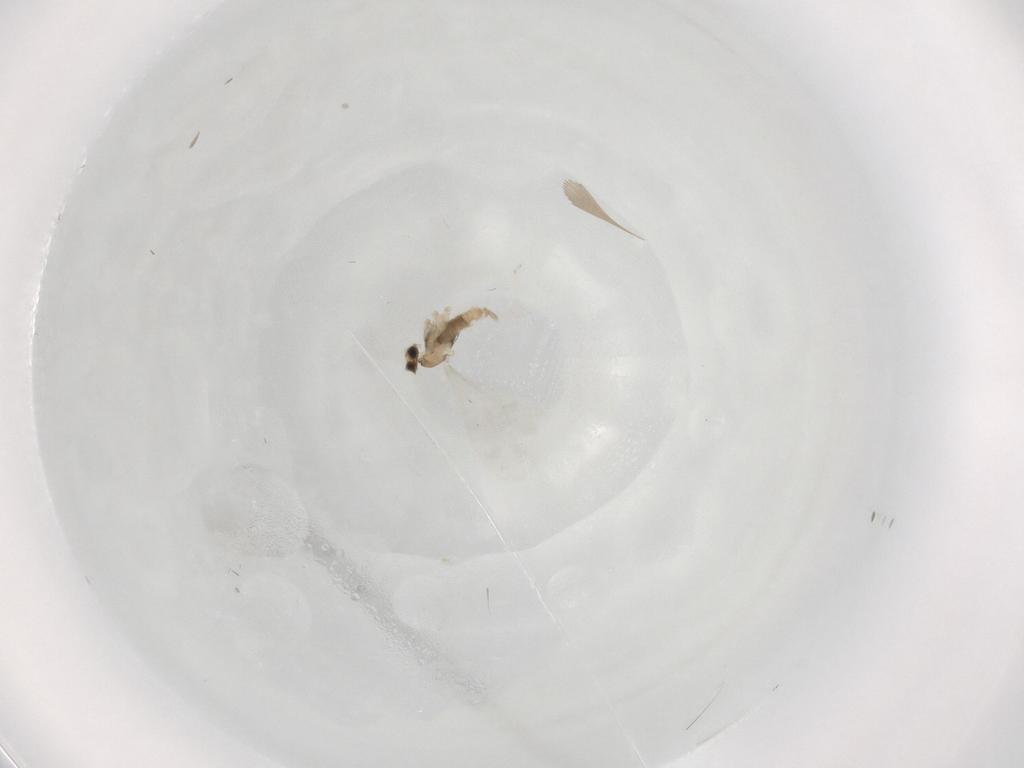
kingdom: Animalia
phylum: Arthropoda
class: Insecta
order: Diptera
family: Cecidomyiidae
